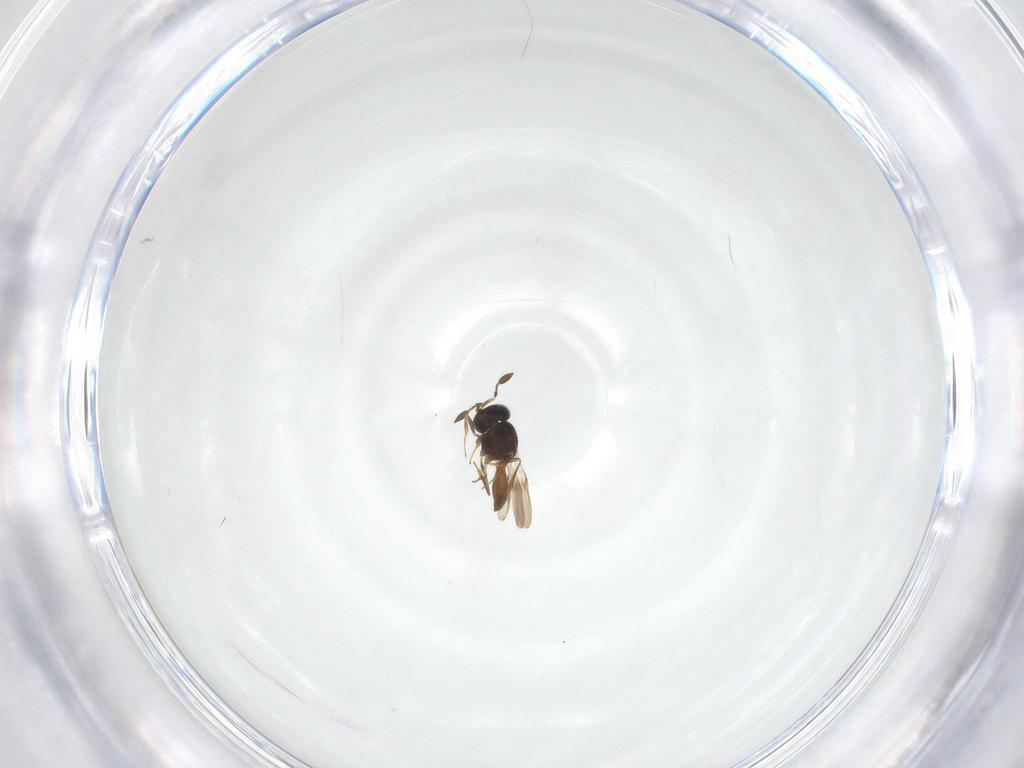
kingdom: Animalia
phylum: Arthropoda
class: Insecta
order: Hymenoptera
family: Scelionidae
